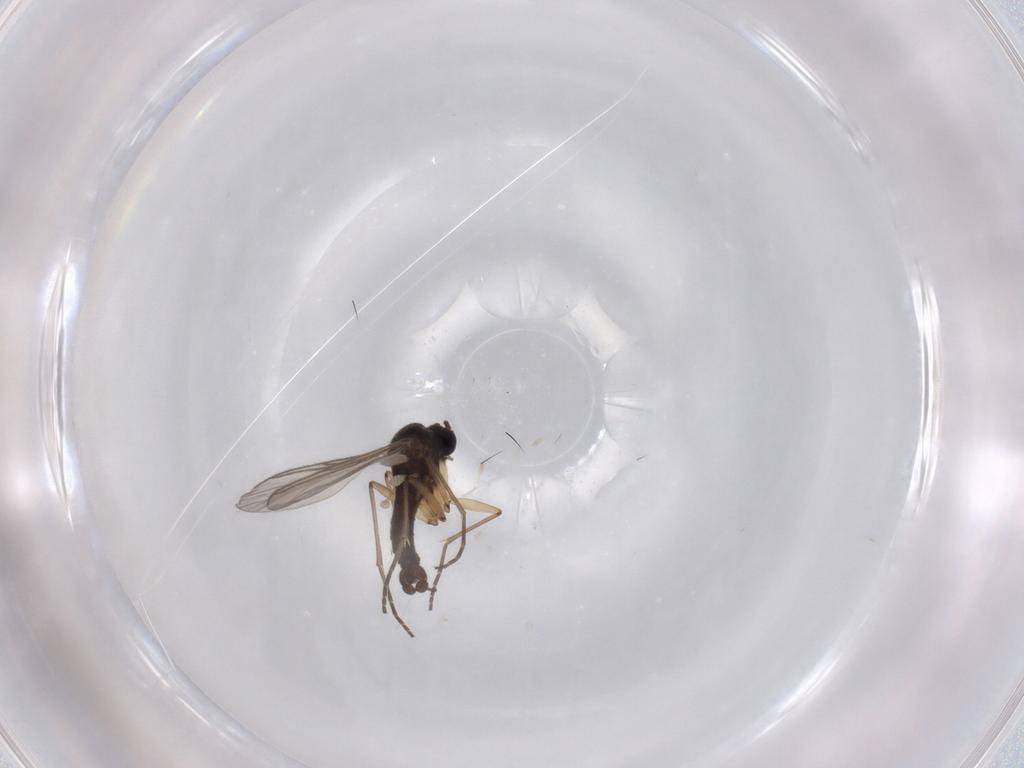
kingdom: Animalia
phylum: Arthropoda
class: Insecta
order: Diptera
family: Sciaridae
